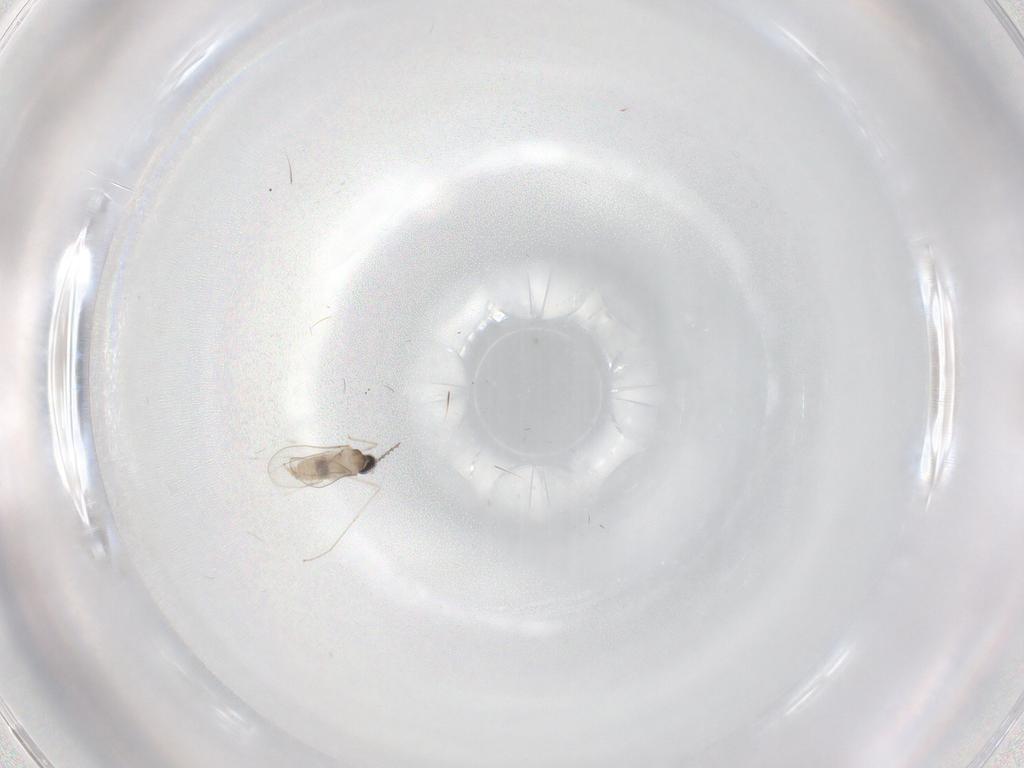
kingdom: Animalia
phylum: Arthropoda
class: Insecta
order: Diptera
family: Cecidomyiidae
